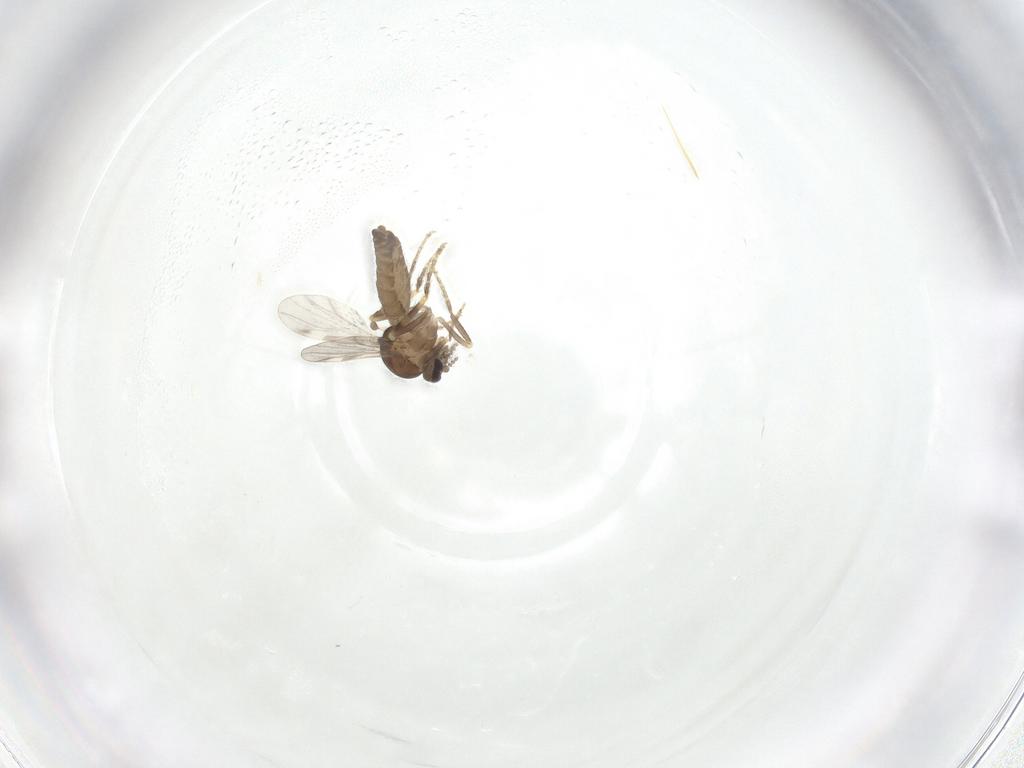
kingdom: Animalia
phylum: Arthropoda
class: Insecta
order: Diptera
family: Ceratopogonidae
